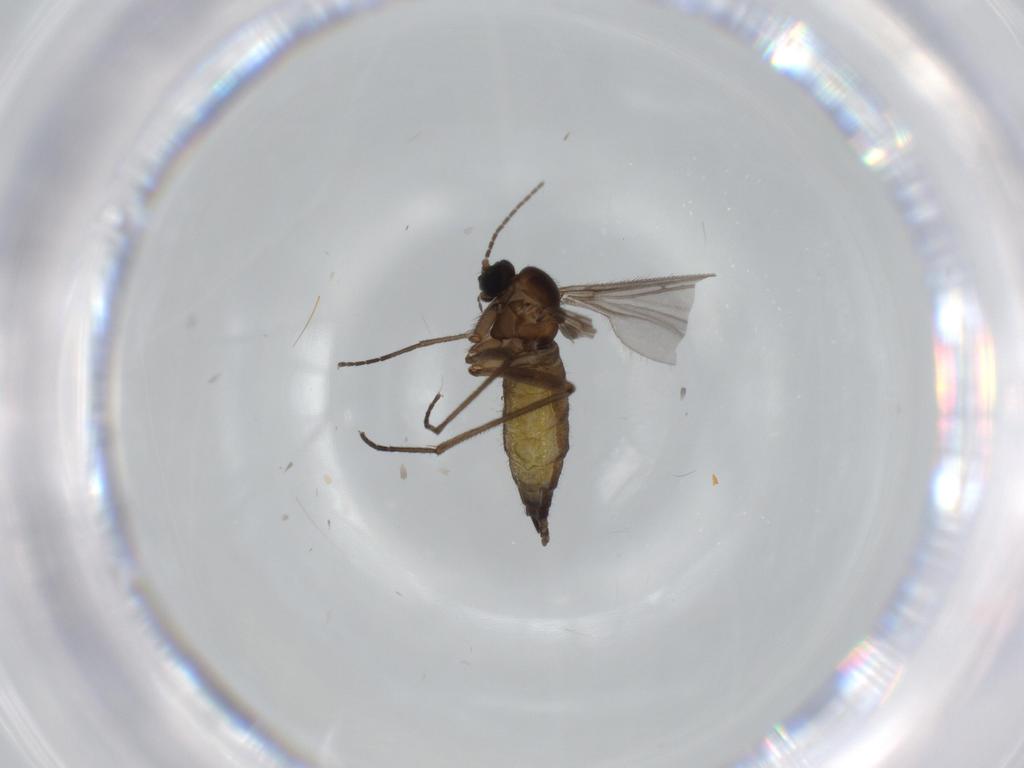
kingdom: Animalia
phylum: Arthropoda
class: Insecta
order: Diptera
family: Sciaridae
